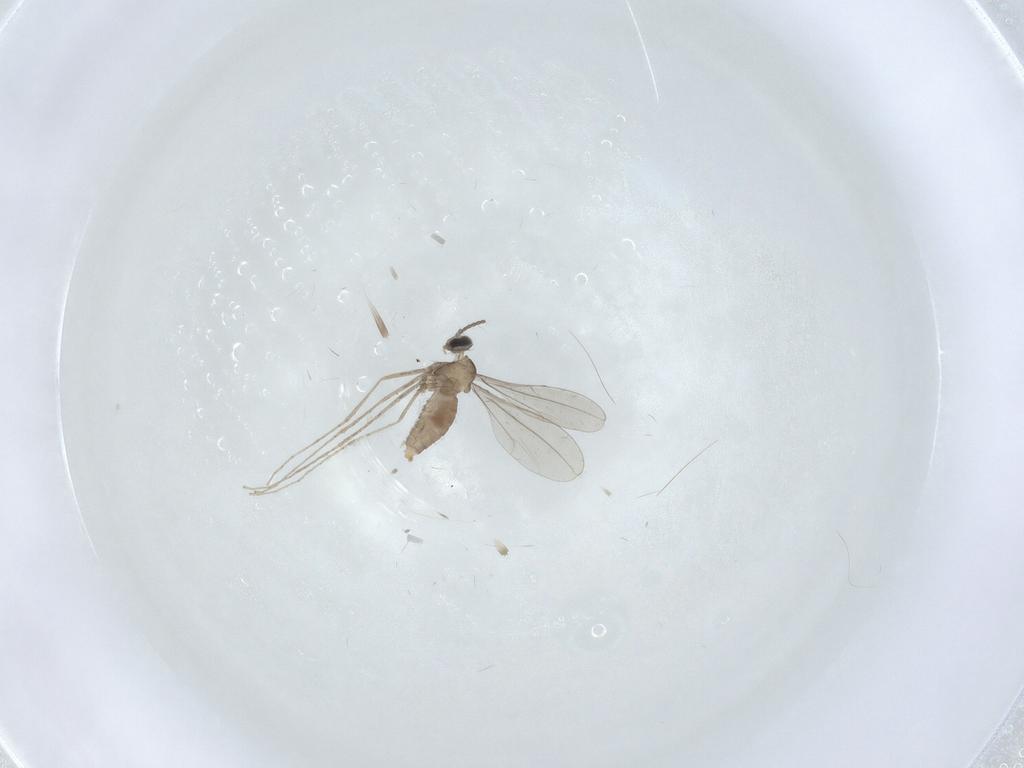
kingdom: Animalia
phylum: Arthropoda
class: Insecta
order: Diptera
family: Cecidomyiidae
